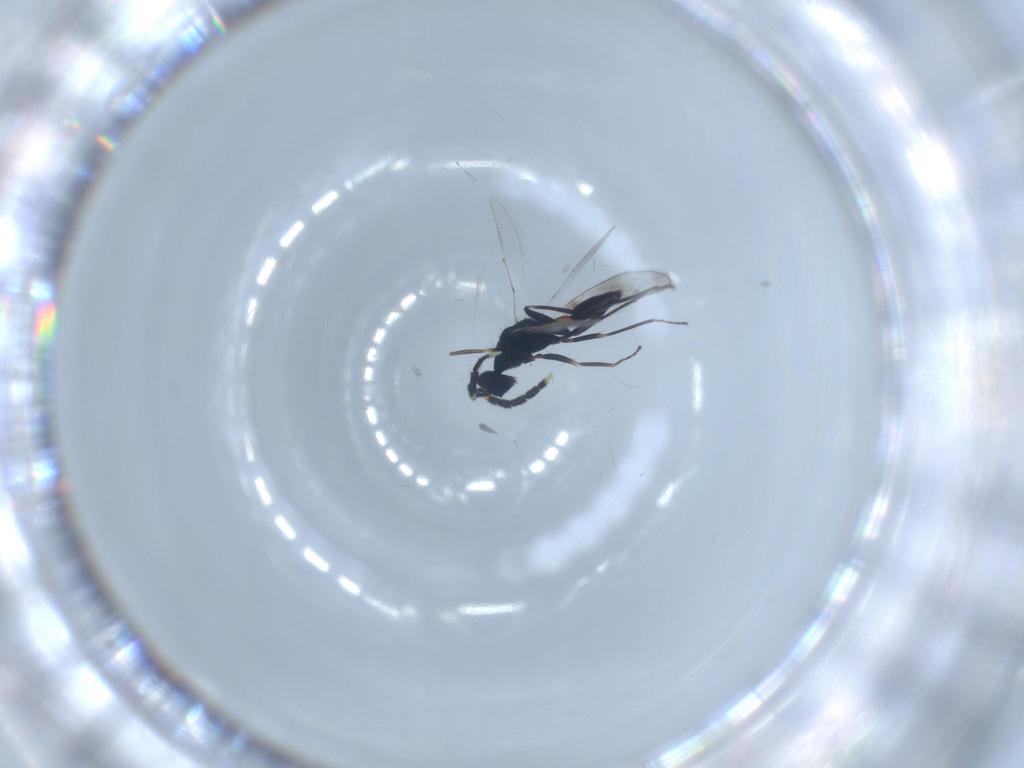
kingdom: Animalia
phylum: Arthropoda
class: Insecta
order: Hymenoptera
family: Eulophidae
